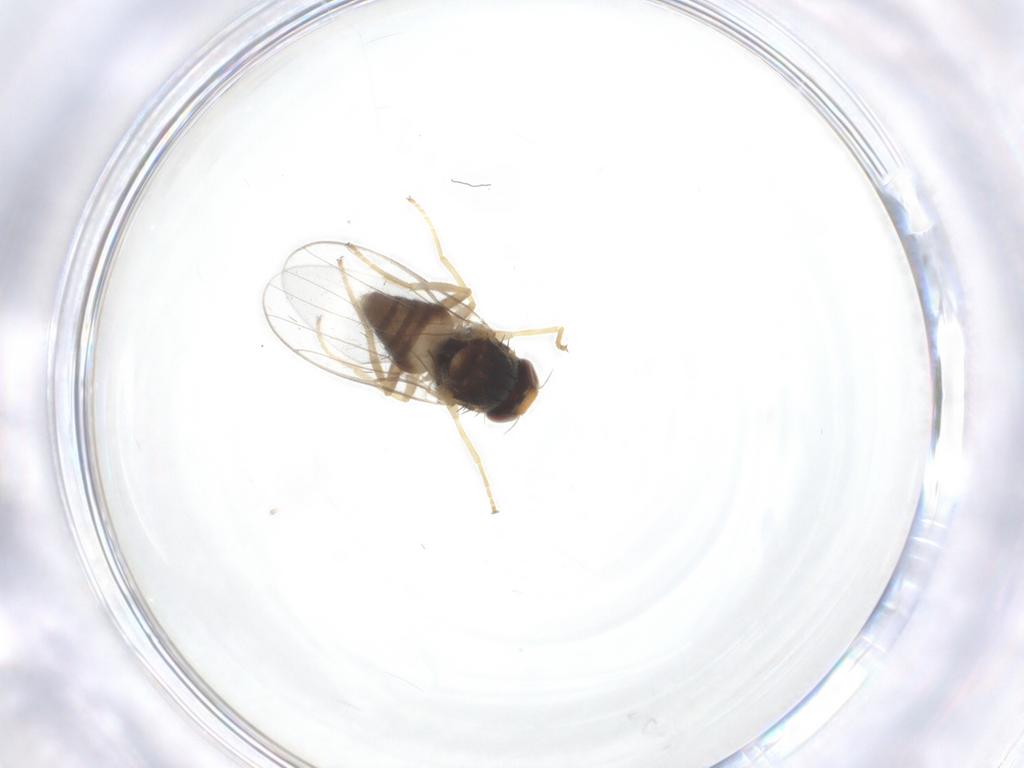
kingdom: Animalia
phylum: Arthropoda
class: Insecta
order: Diptera
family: Chloropidae
